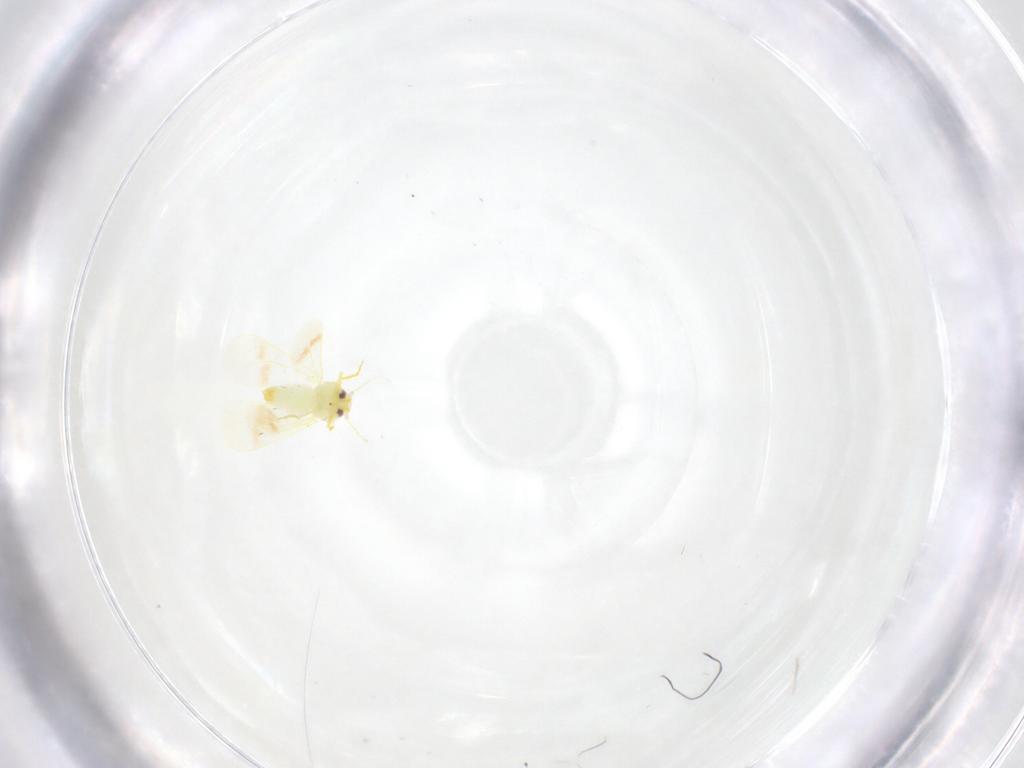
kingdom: Animalia
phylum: Arthropoda
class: Insecta
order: Hemiptera
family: Aleyrodidae
